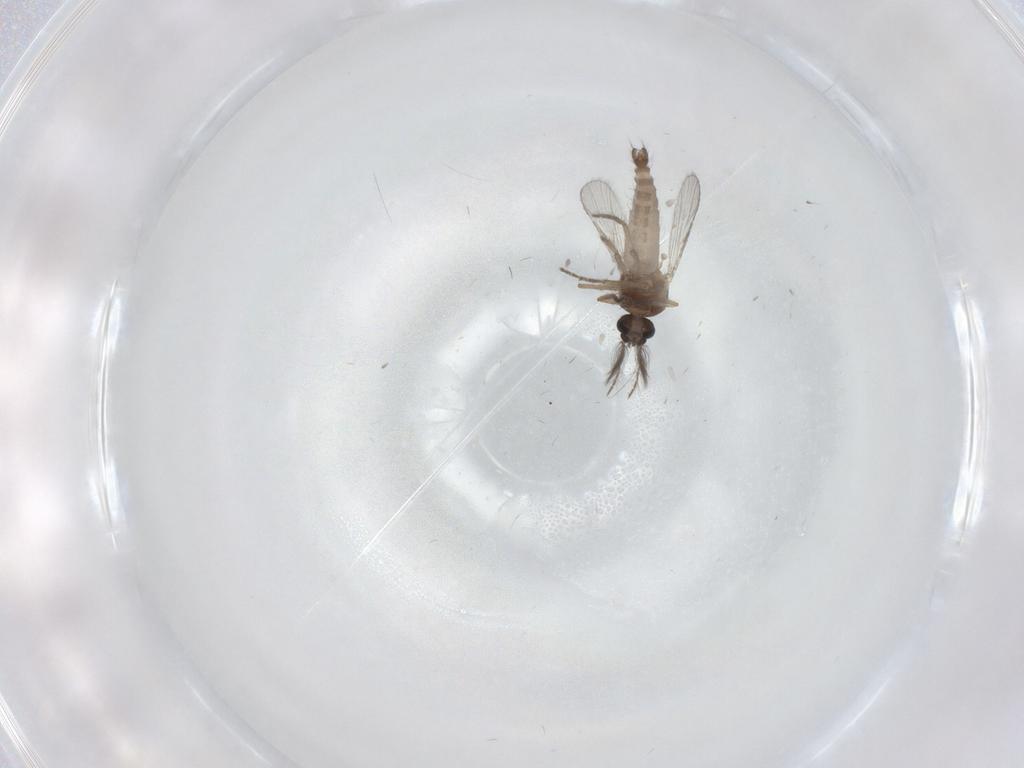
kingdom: Animalia
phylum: Arthropoda
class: Insecta
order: Diptera
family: Ceratopogonidae
